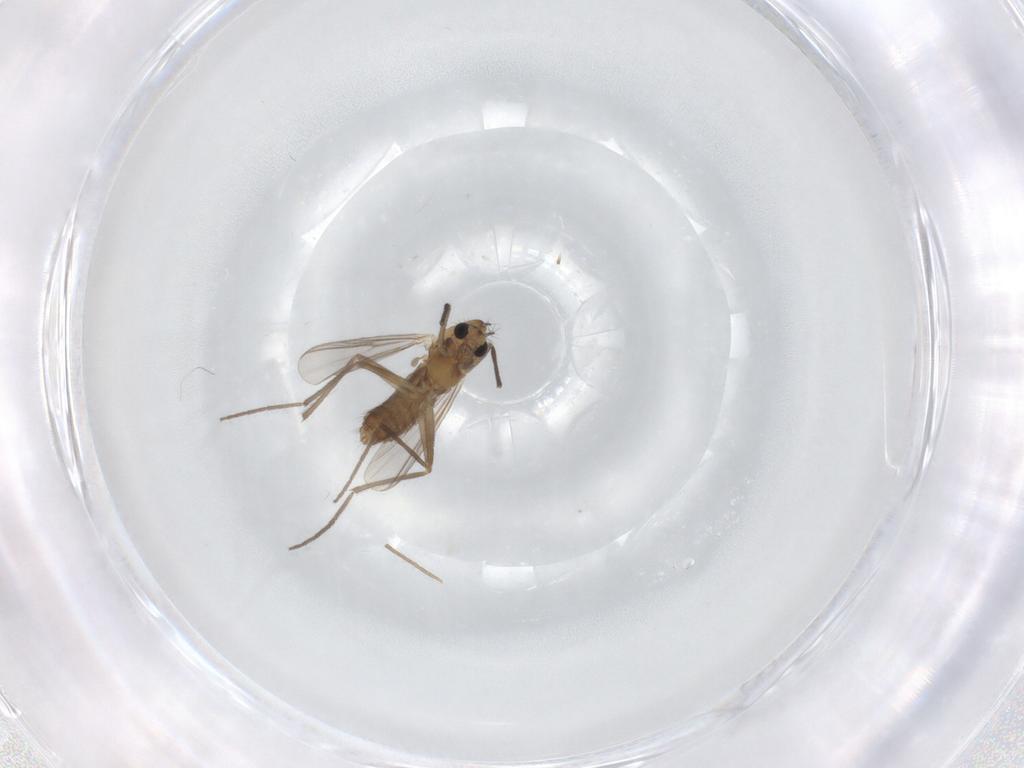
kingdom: Animalia
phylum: Arthropoda
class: Insecta
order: Diptera
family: Chironomidae
